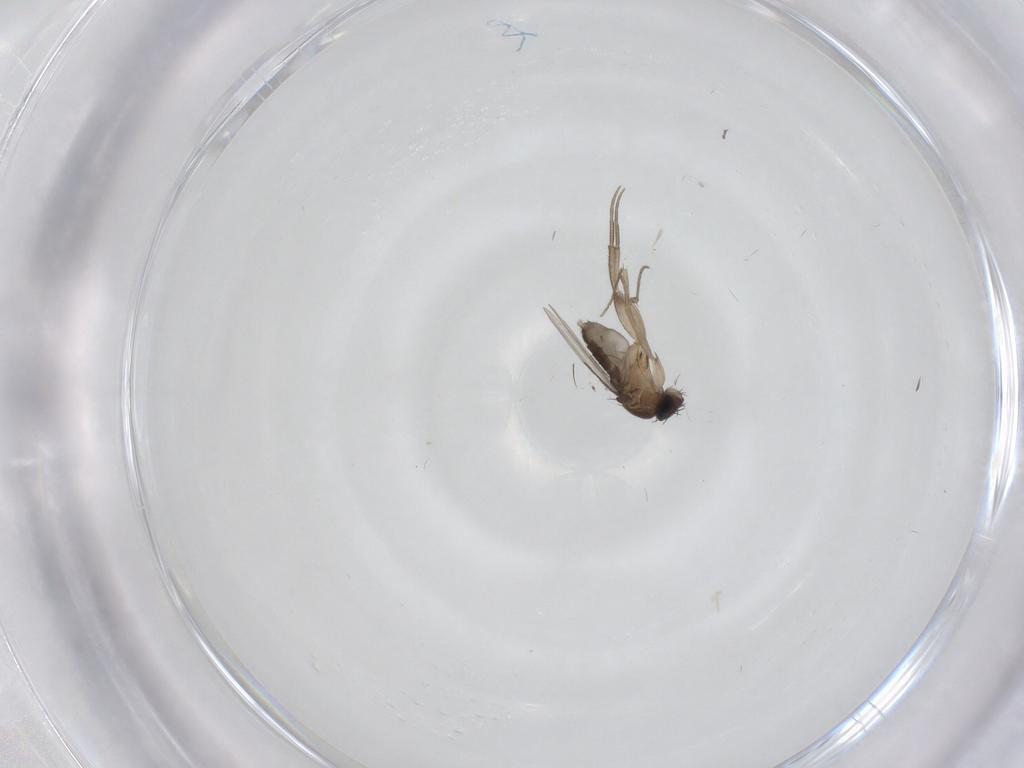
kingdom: Animalia
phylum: Arthropoda
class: Insecta
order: Diptera
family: Phoridae
